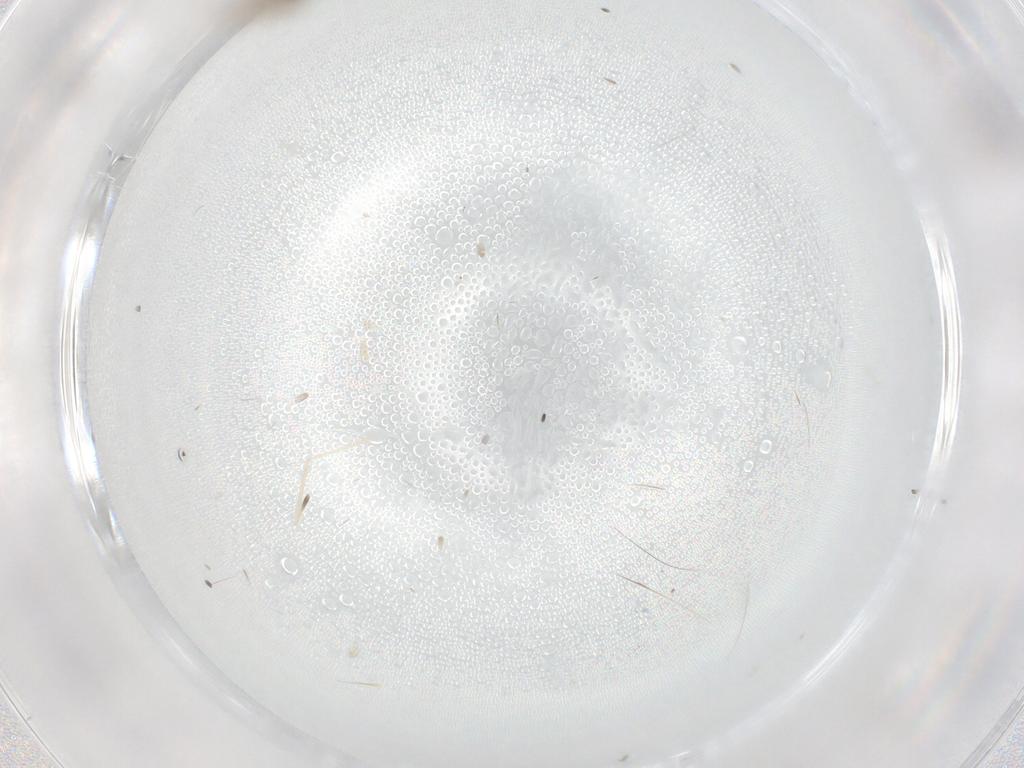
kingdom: Animalia
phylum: Arthropoda
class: Insecta
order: Diptera
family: Cecidomyiidae
